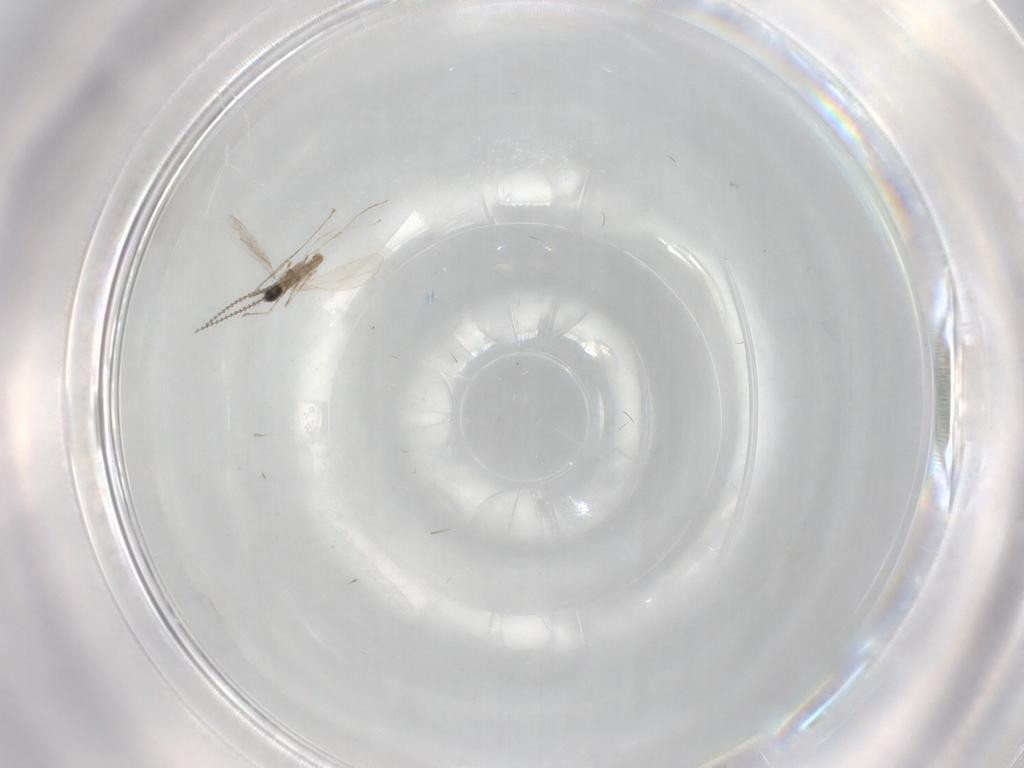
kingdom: Animalia
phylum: Arthropoda
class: Insecta
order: Diptera
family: Cecidomyiidae
